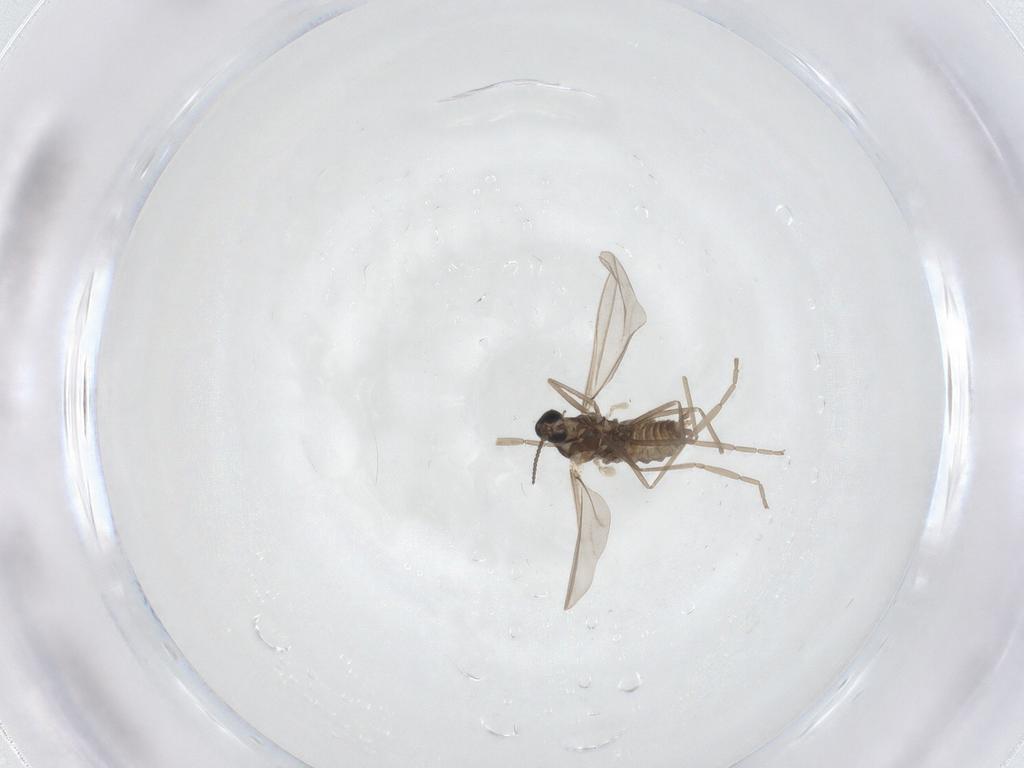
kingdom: Animalia
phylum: Arthropoda
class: Insecta
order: Diptera
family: Cecidomyiidae
